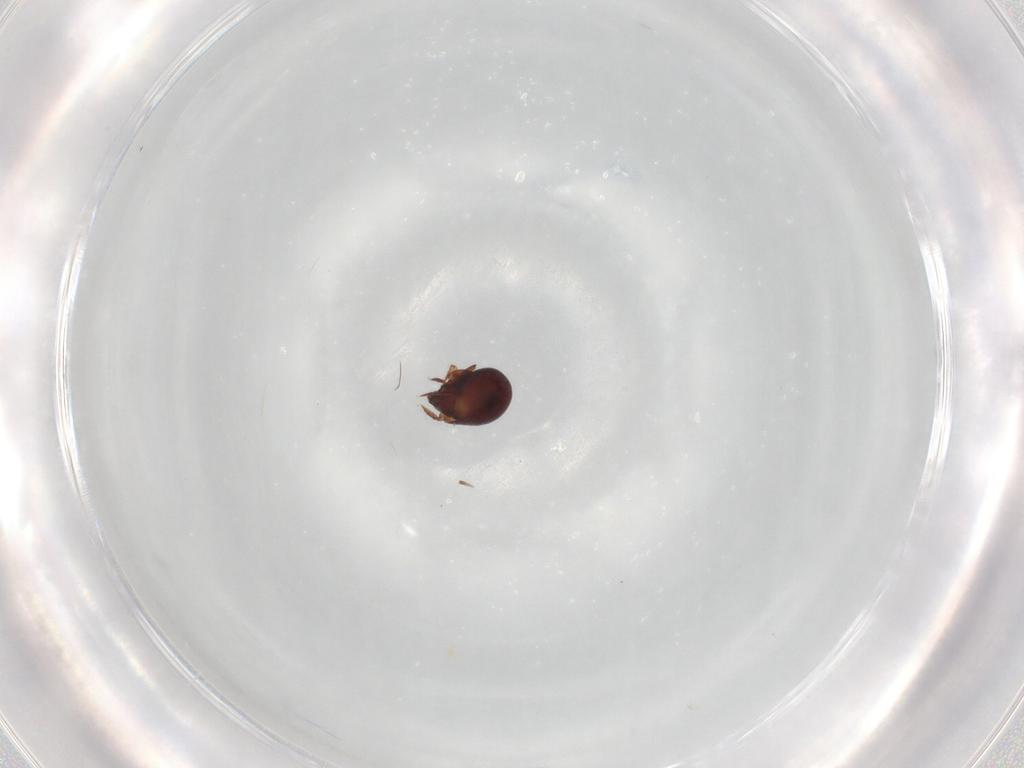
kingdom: Animalia
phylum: Arthropoda
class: Arachnida
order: Sarcoptiformes
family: Humerobatidae
